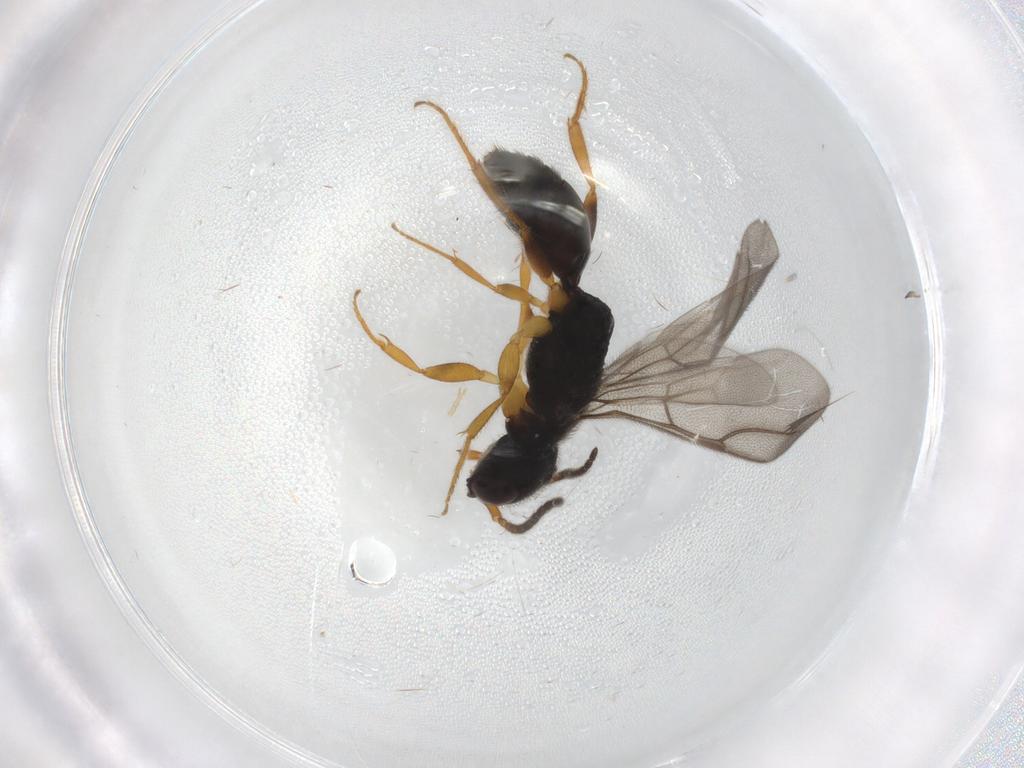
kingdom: Animalia
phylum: Arthropoda
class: Insecta
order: Hymenoptera
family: Bethylidae
